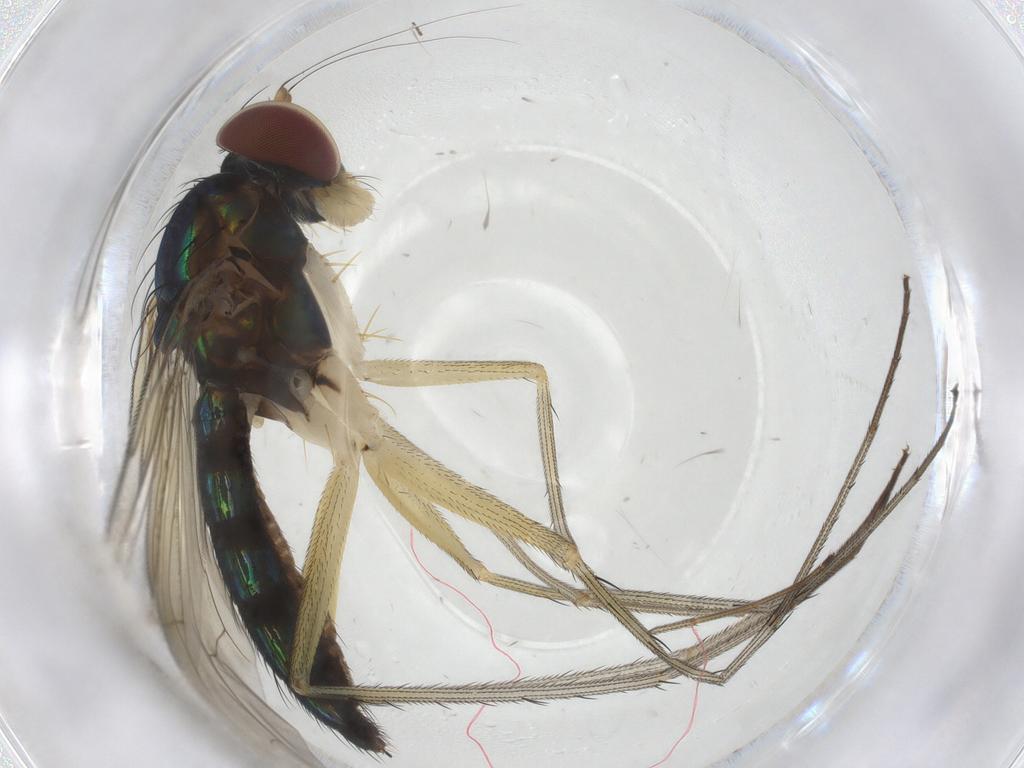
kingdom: Animalia
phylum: Arthropoda
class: Insecta
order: Diptera
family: Dolichopodidae
